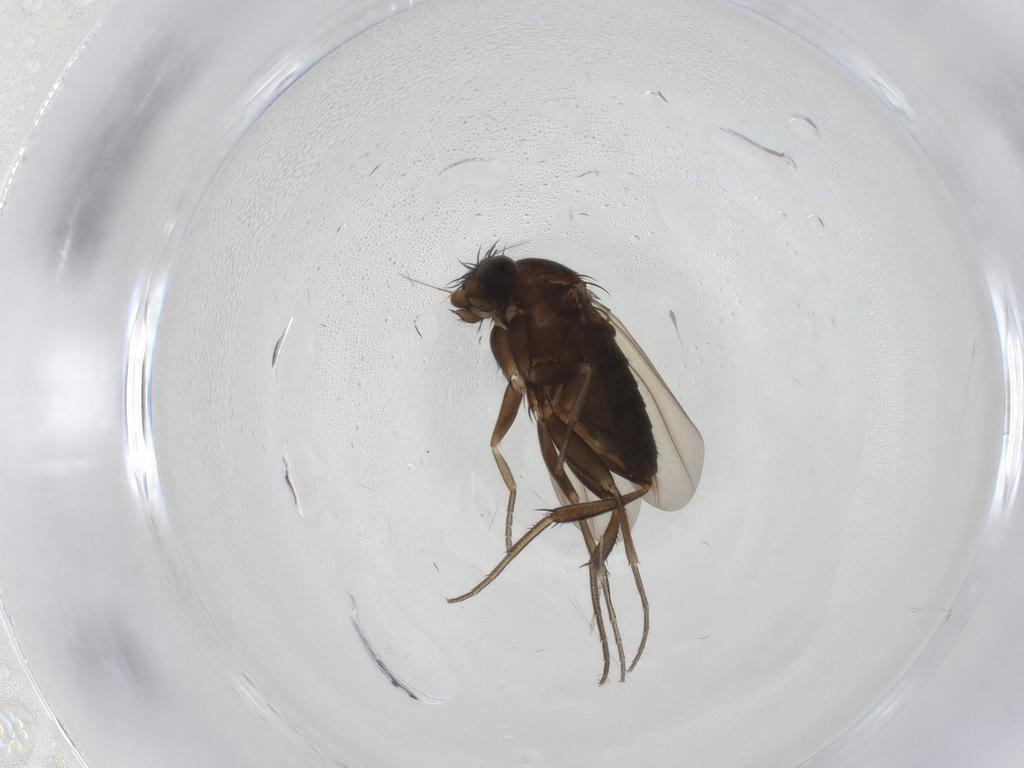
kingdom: Animalia
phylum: Arthropoda
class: Insecta
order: Diptera
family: Phoridae
